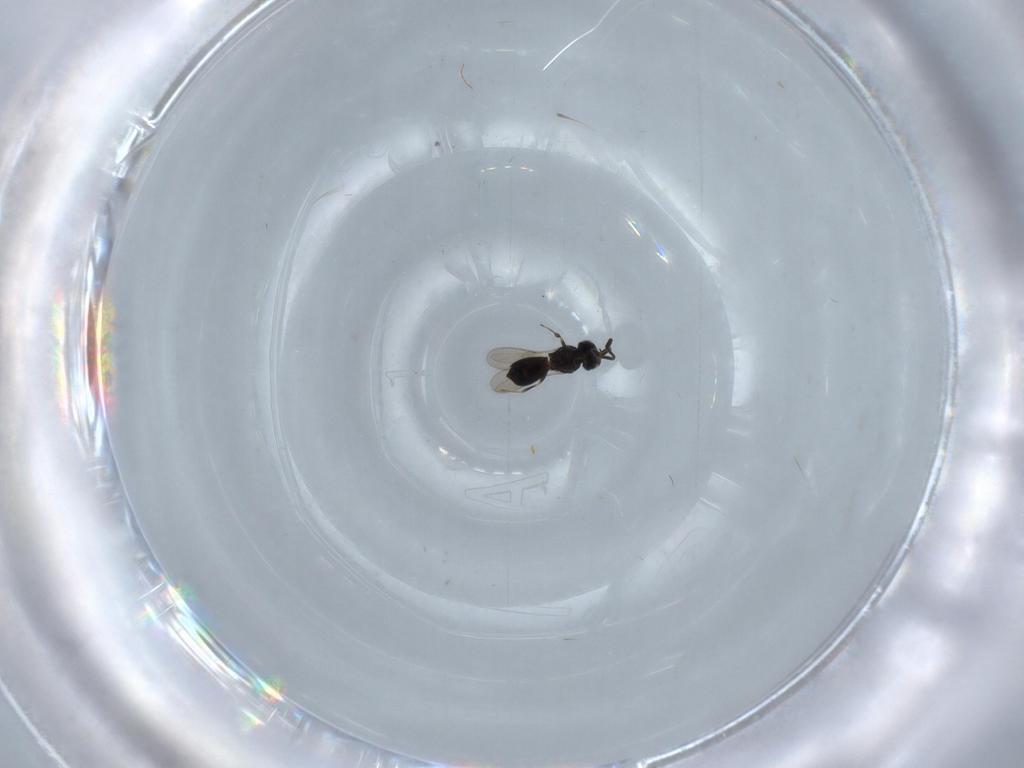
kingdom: Animalia
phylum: Arthropoda
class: Insecta
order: Hymenoptera
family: Scelionidae
